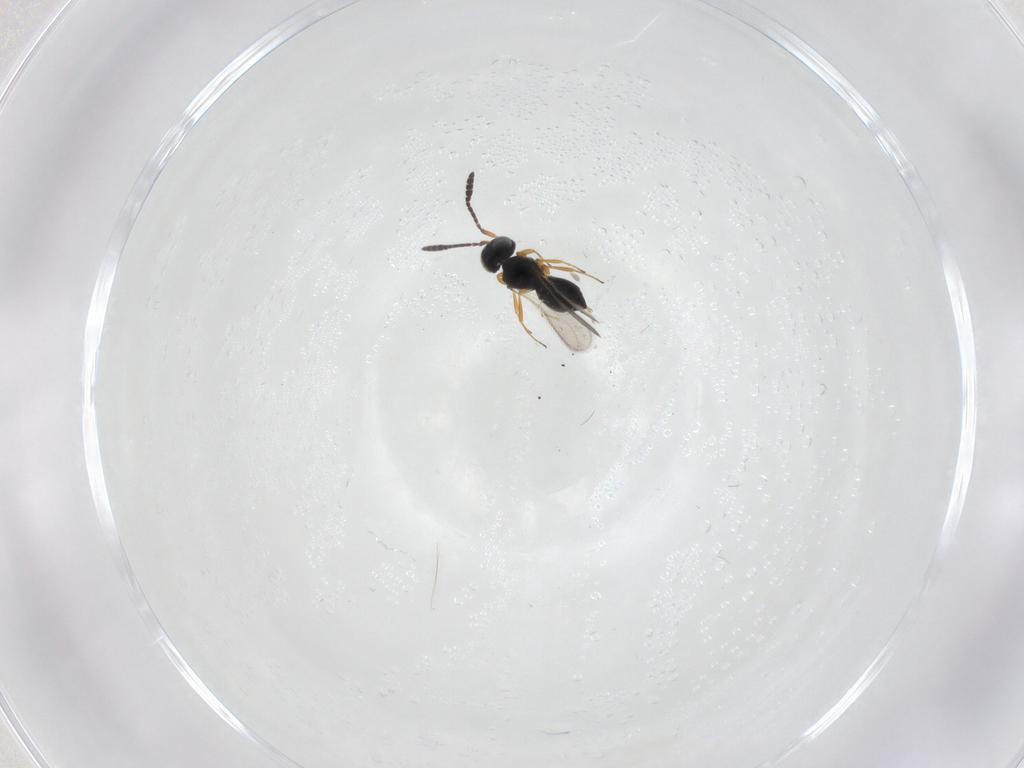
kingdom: Animalia
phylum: Arthropoda
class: Insecta
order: Hymenoptera
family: Scelionidae
